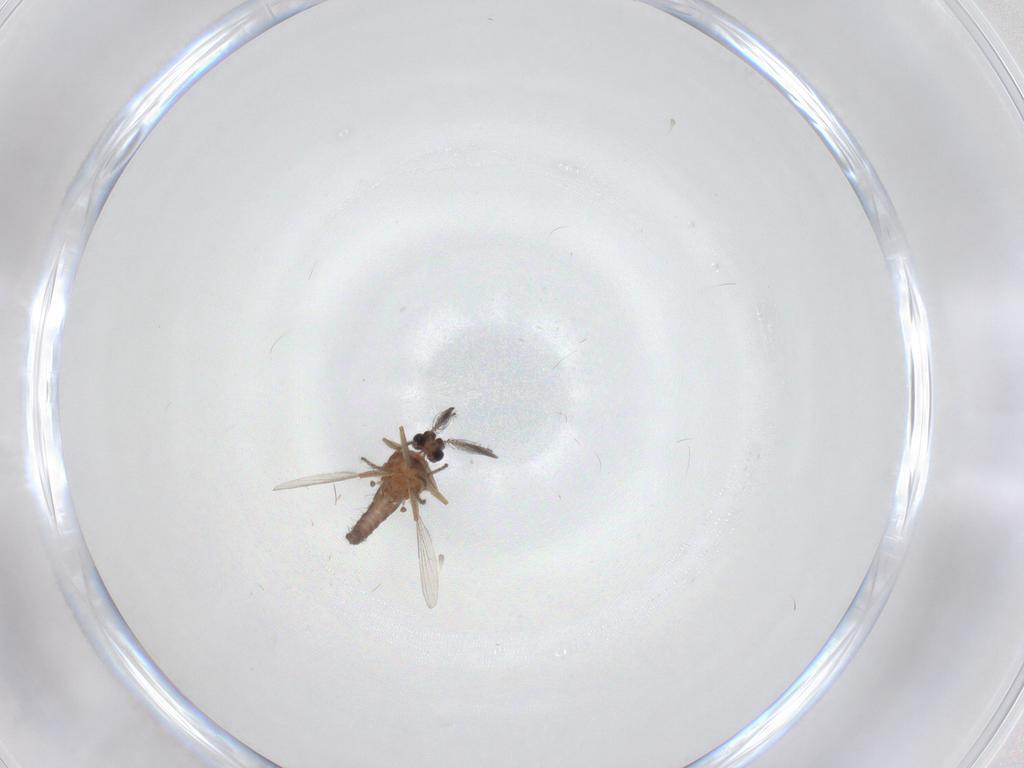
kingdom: Animalia
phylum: Arthropoda
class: Insecta
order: Diptera
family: Ceratopogonidae
